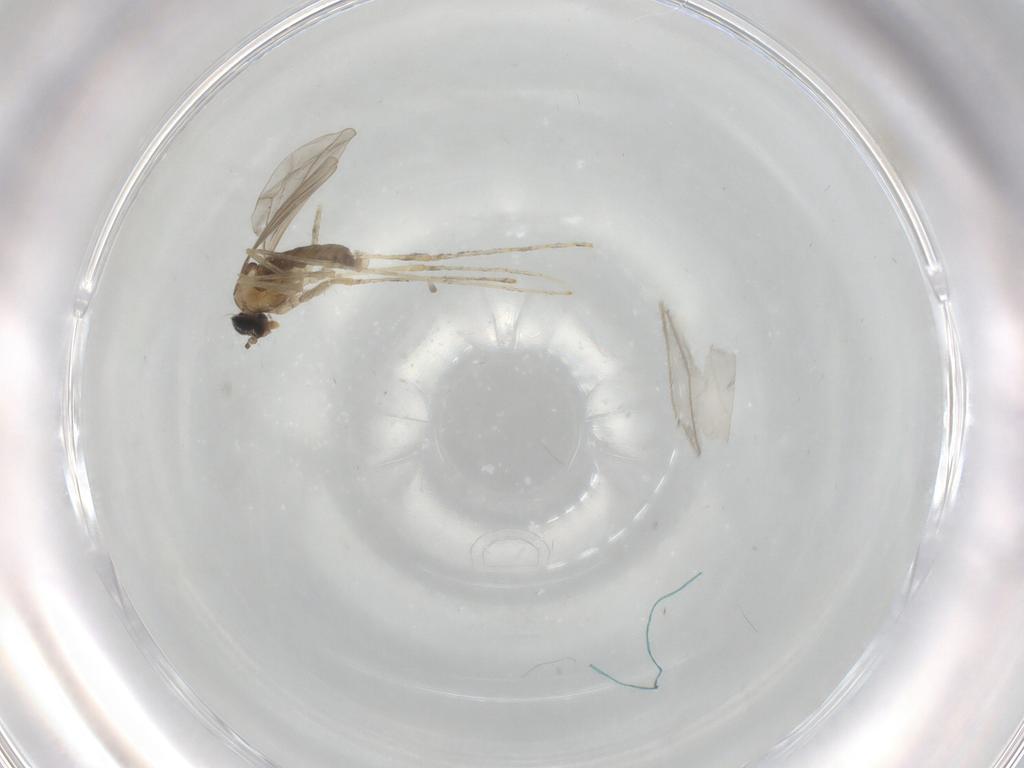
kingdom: Animalia
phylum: Arthropoda
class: Insecta
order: Diptera
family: Cecidomyiidae
